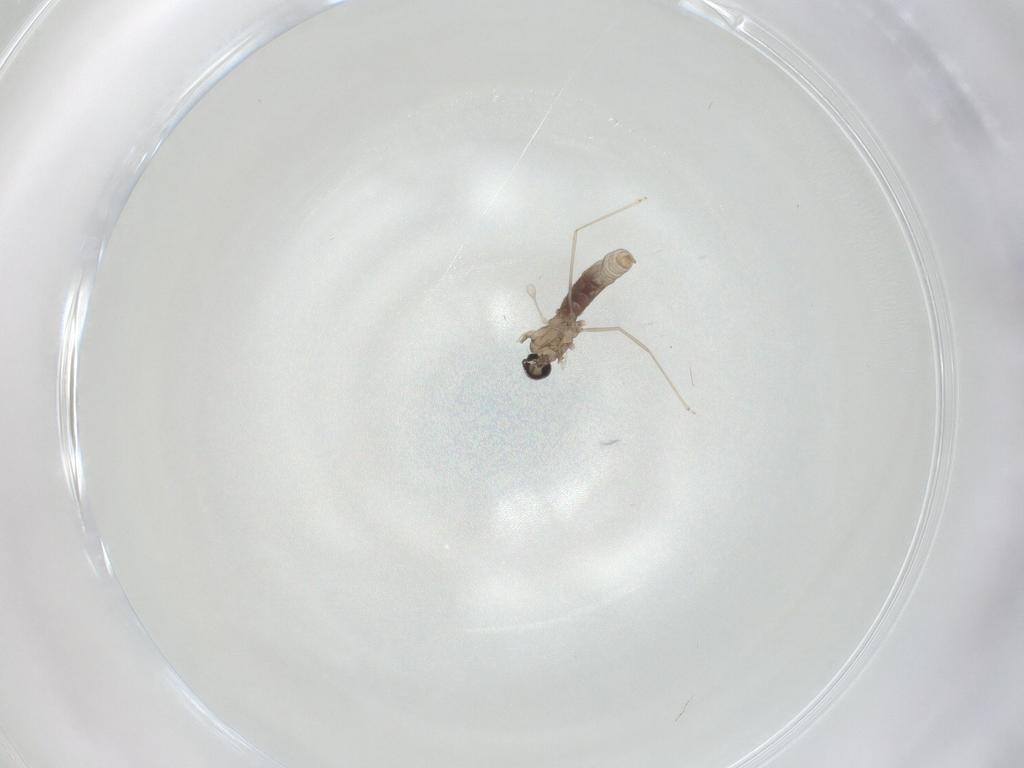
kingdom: Animalia
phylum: Arthropoda
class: Insecta
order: Diptera
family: Cecidomyiidae
